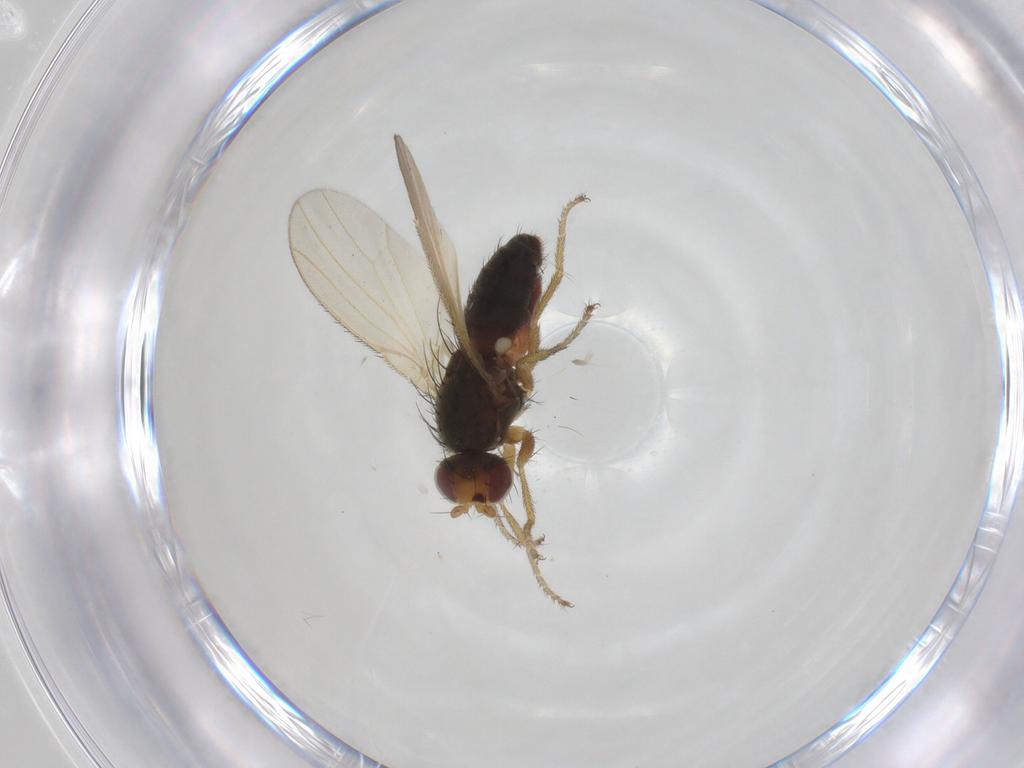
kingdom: Animalia
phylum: Arthropoda
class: Insecta
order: Diptera
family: Heleomyzidae
